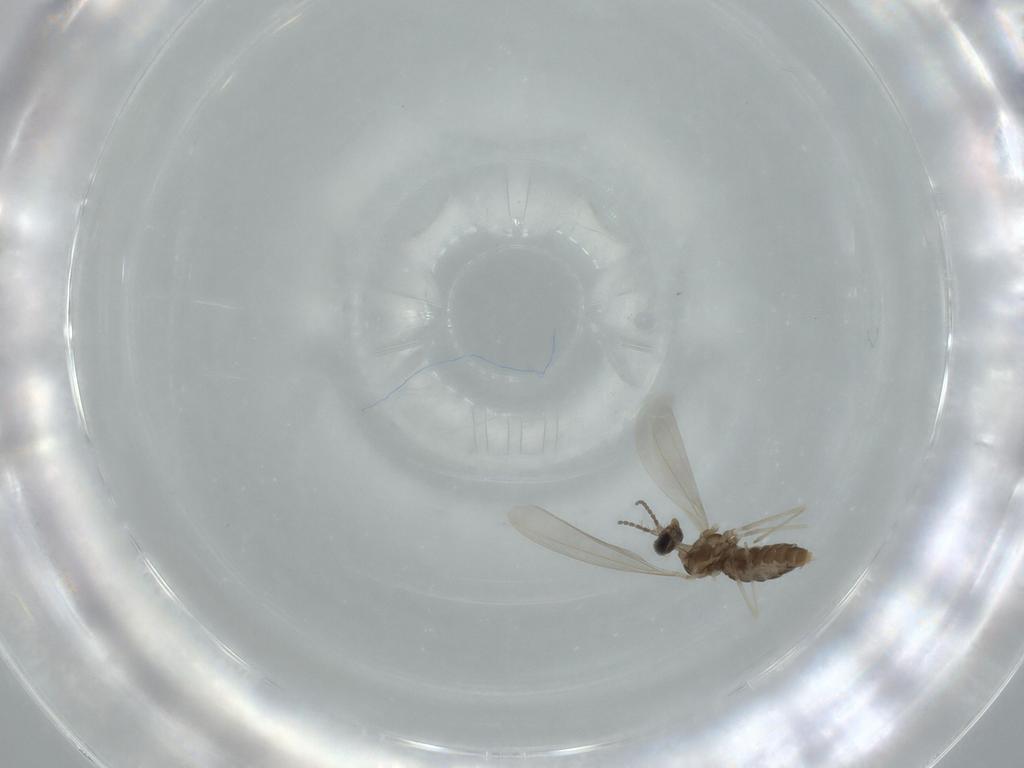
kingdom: Animalia
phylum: Arthropoda
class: Insecta
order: Diptera
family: Cecidomyiidae
